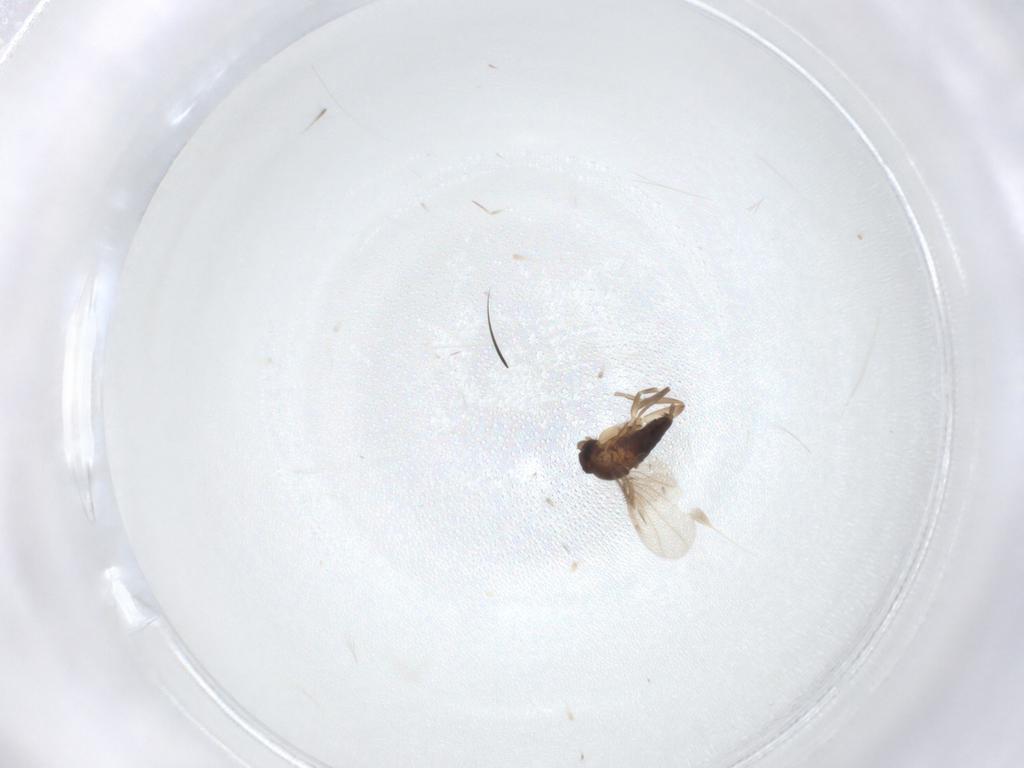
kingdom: Animalia
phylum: Arthropoda
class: Insecta
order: Diptera
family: Phoridae
